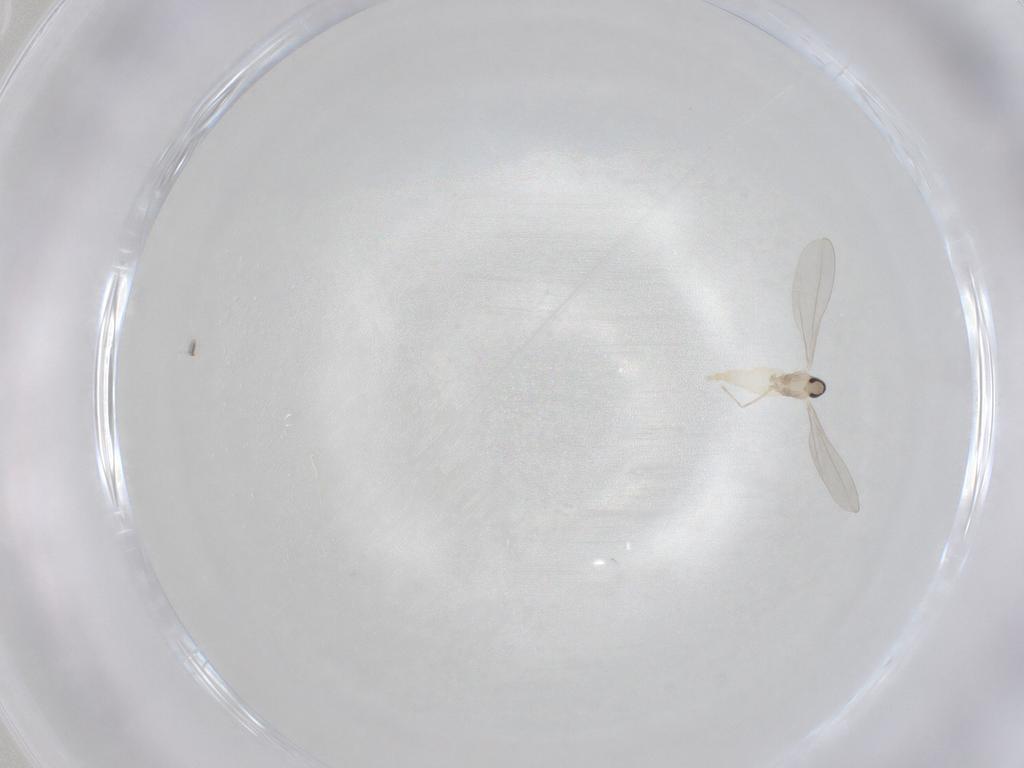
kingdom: Animalia
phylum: Arthropoda
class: Insecta
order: Diptera
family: Cecidomyiidae
